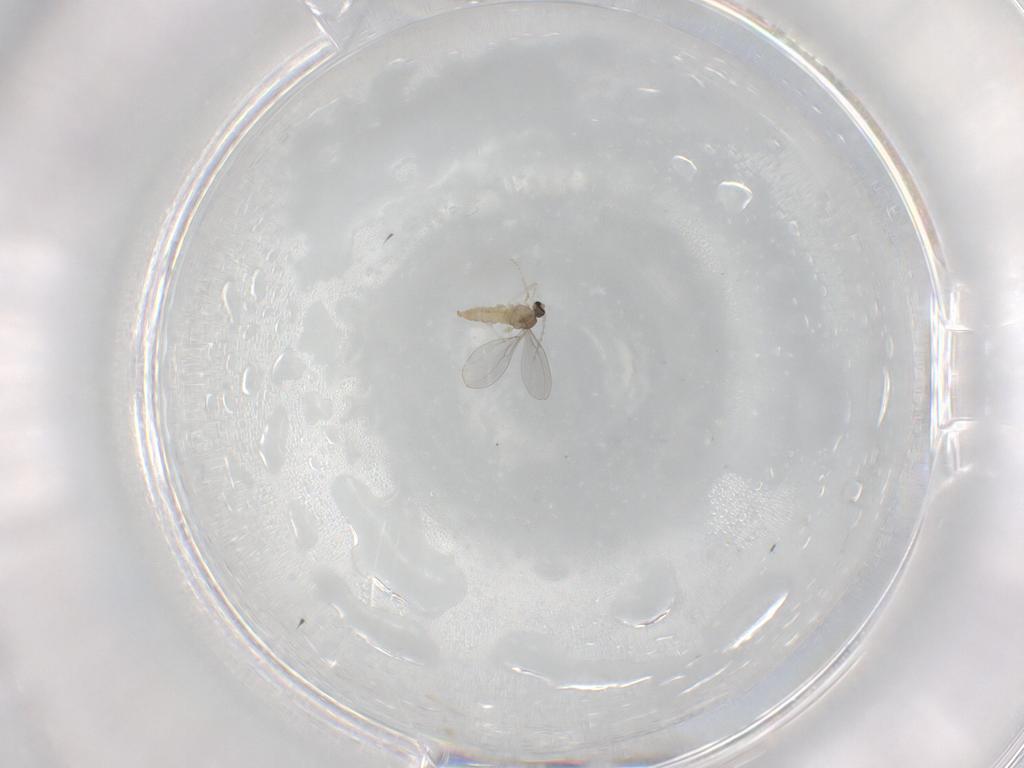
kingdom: Animalia
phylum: Arthropoda
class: Insecta
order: Diptera
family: Cecidomyiidae
